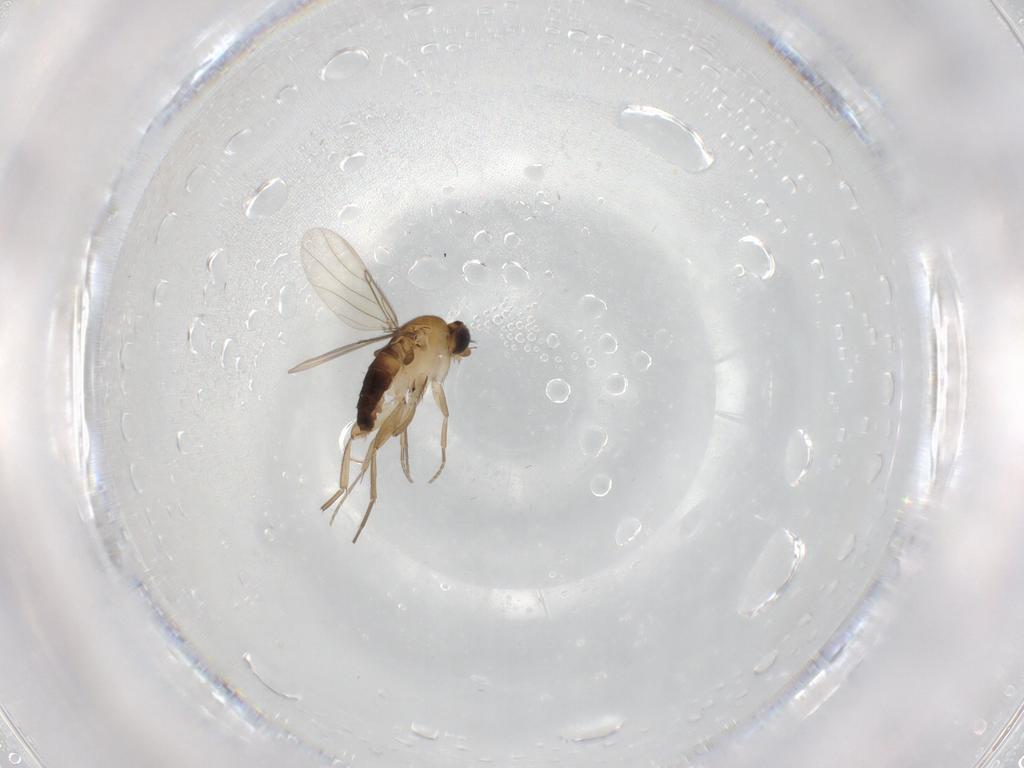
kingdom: Animalia
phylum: Arthropoda
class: Insecta
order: Diptera
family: Phoridae
